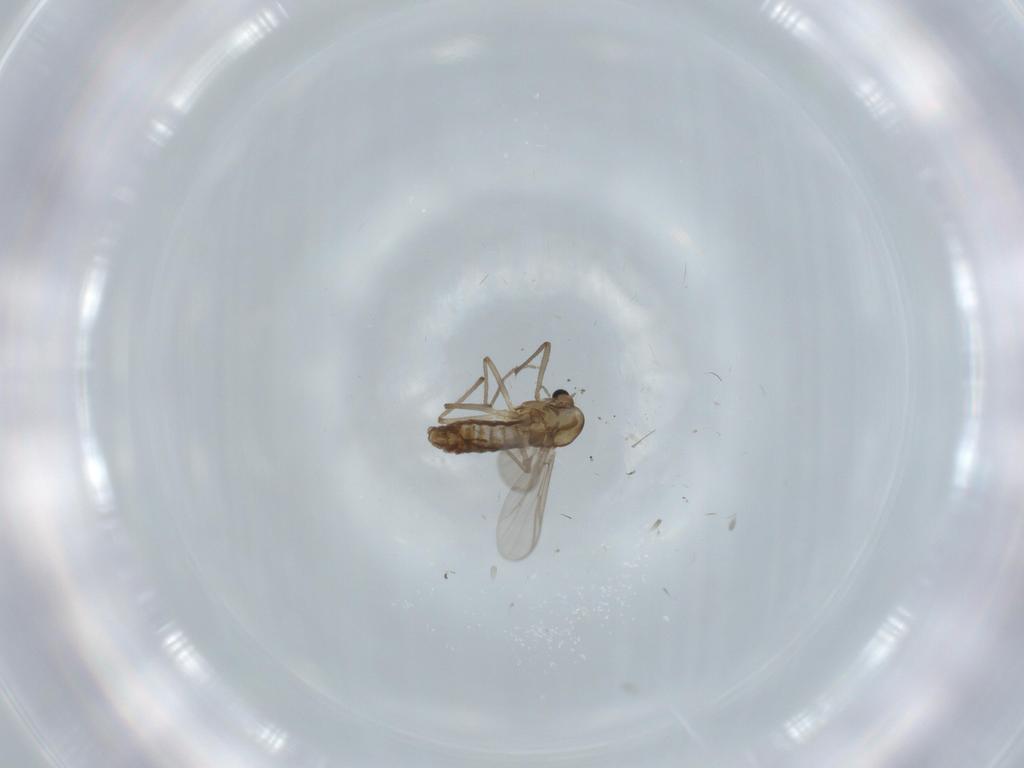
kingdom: Animalia
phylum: Arthropoda
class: Insecta
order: Diptera
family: Chironomidae
